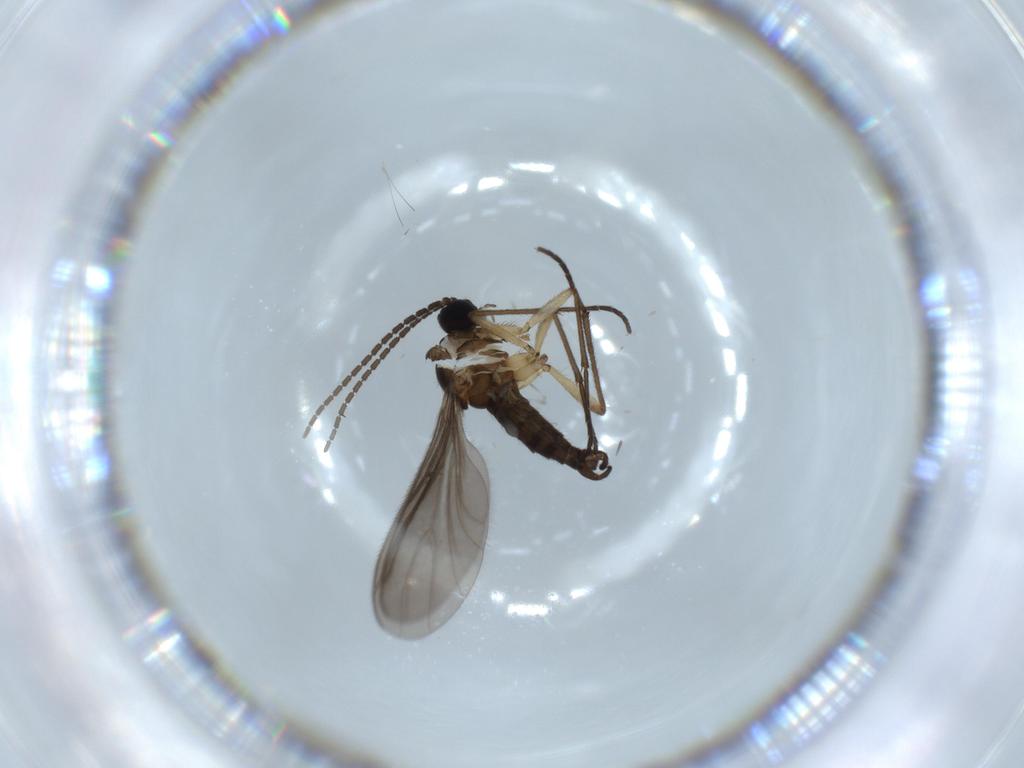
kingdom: Animalia
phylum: Arthropoda
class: Insecta
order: Diptera
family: Sciaridae
